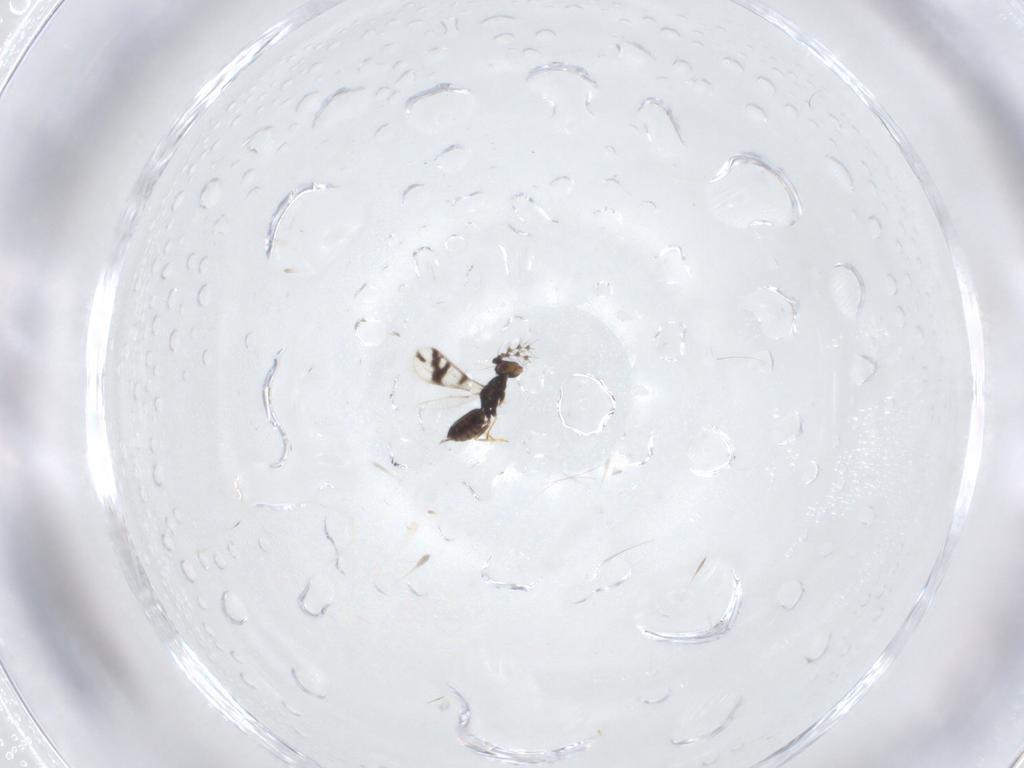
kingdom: Animalia
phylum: Arthropoda
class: Insecta
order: Hymenoptera
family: Eulophidae
